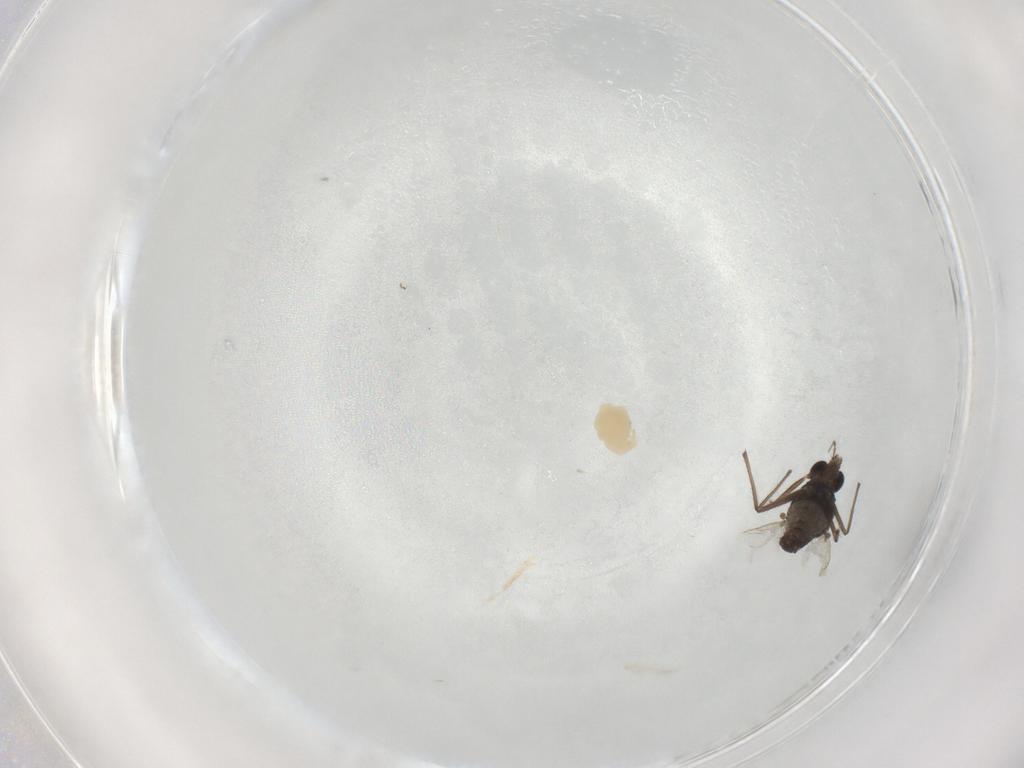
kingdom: Animalia
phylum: Arthropoda
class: Insecta
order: Diptera
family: Chironomidae
